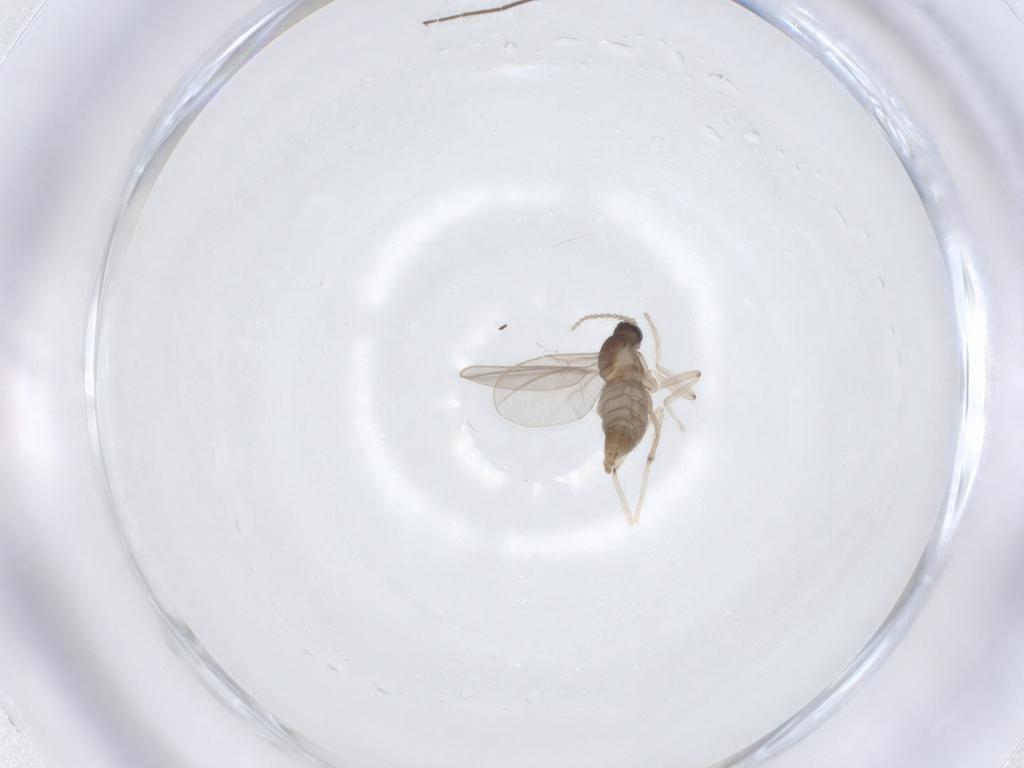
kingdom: Animalia
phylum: Arthropoda
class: Insecta
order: Diptera
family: Cecidomyiidae
